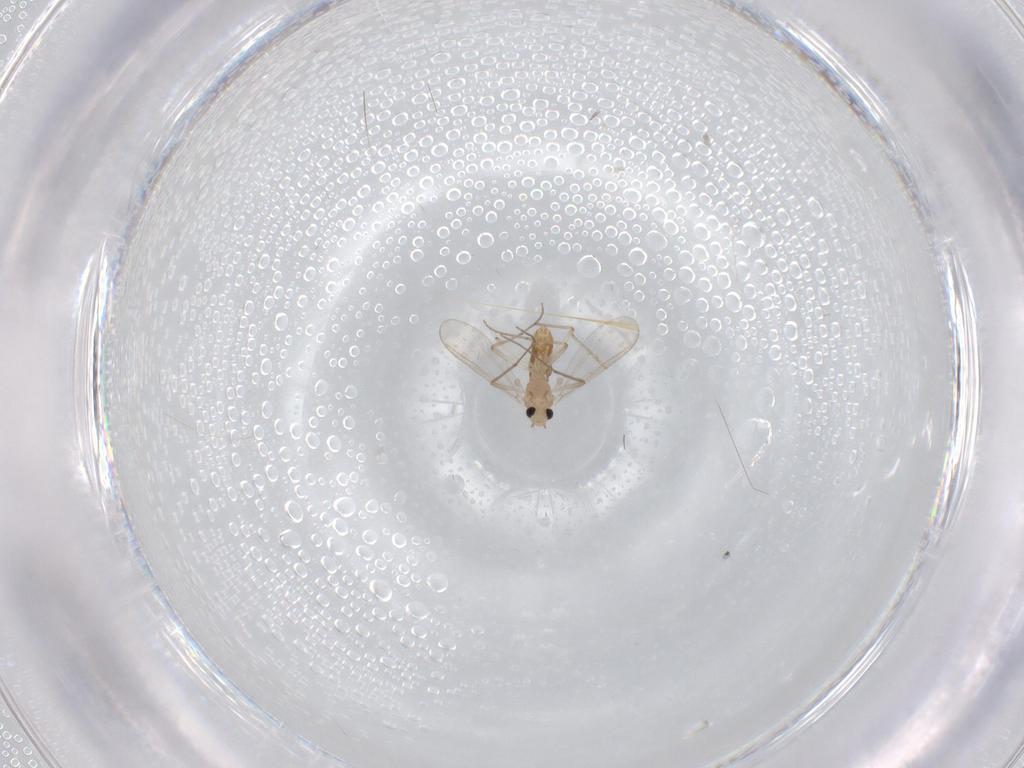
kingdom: Animalia
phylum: Arthropoda
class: Insecta
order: Diptera
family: Chironomidae
